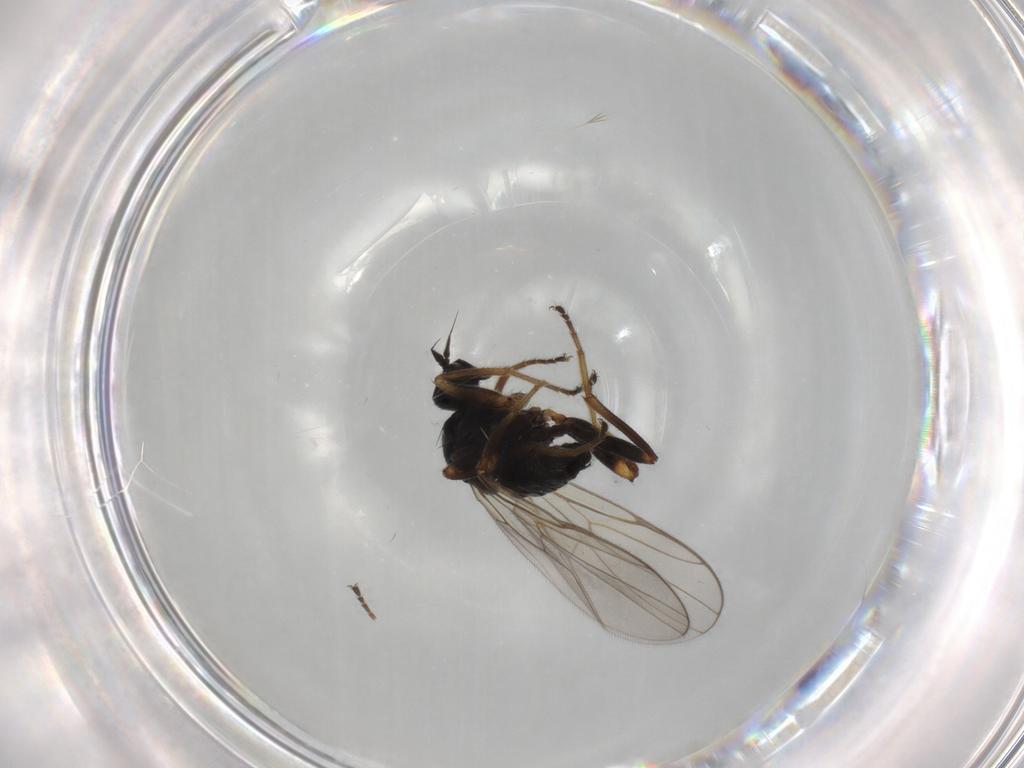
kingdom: Animalia
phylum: Arthropoda
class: Insecta
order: Diptera
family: Hybotidae
